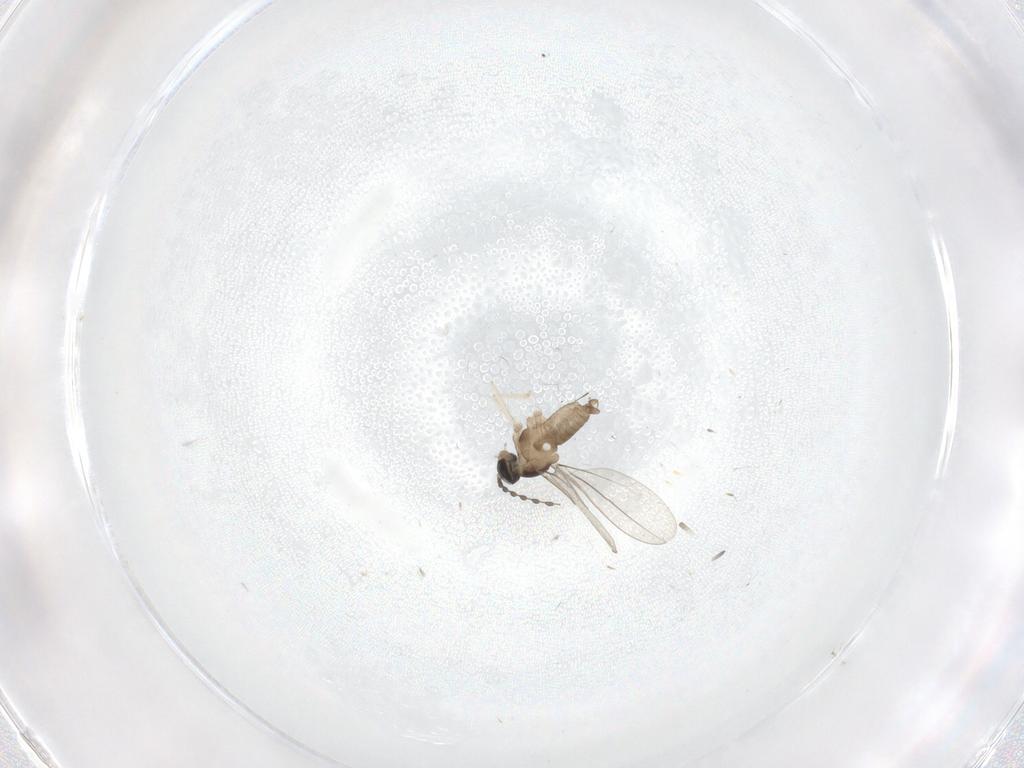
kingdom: Animalia
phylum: Arthropoda
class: Insecta
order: Diptera
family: Cecidomyiidae
